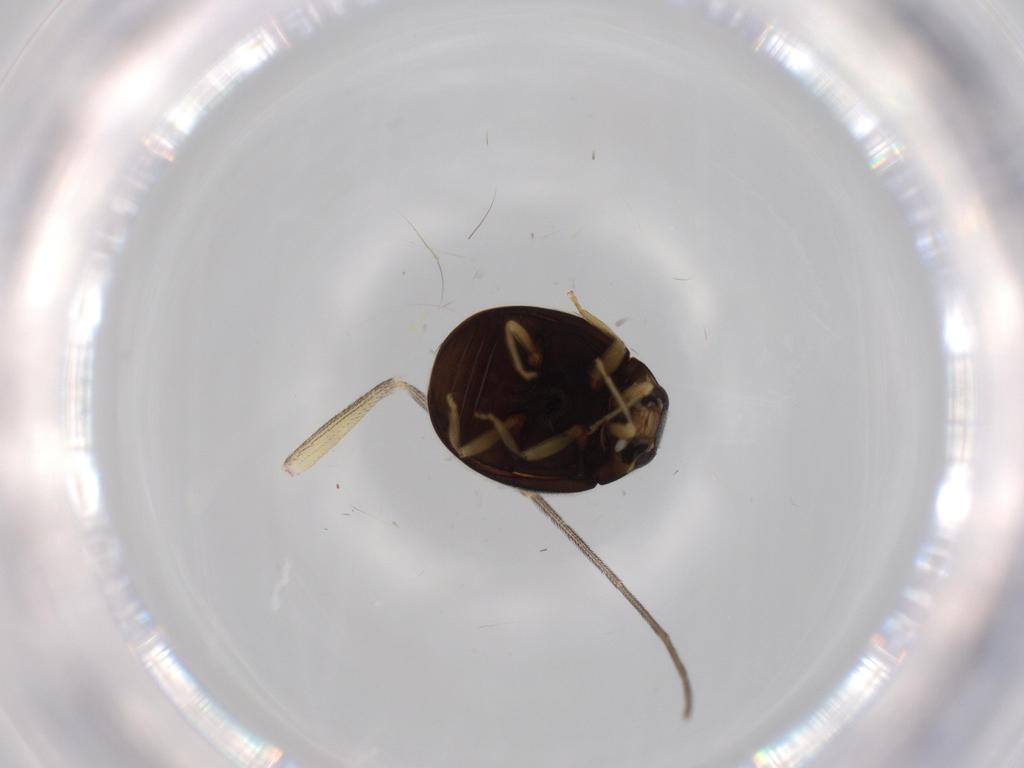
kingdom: Animalia
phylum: Arthropoda
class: Insecta
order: Coleoptera
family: Coccinellidae
